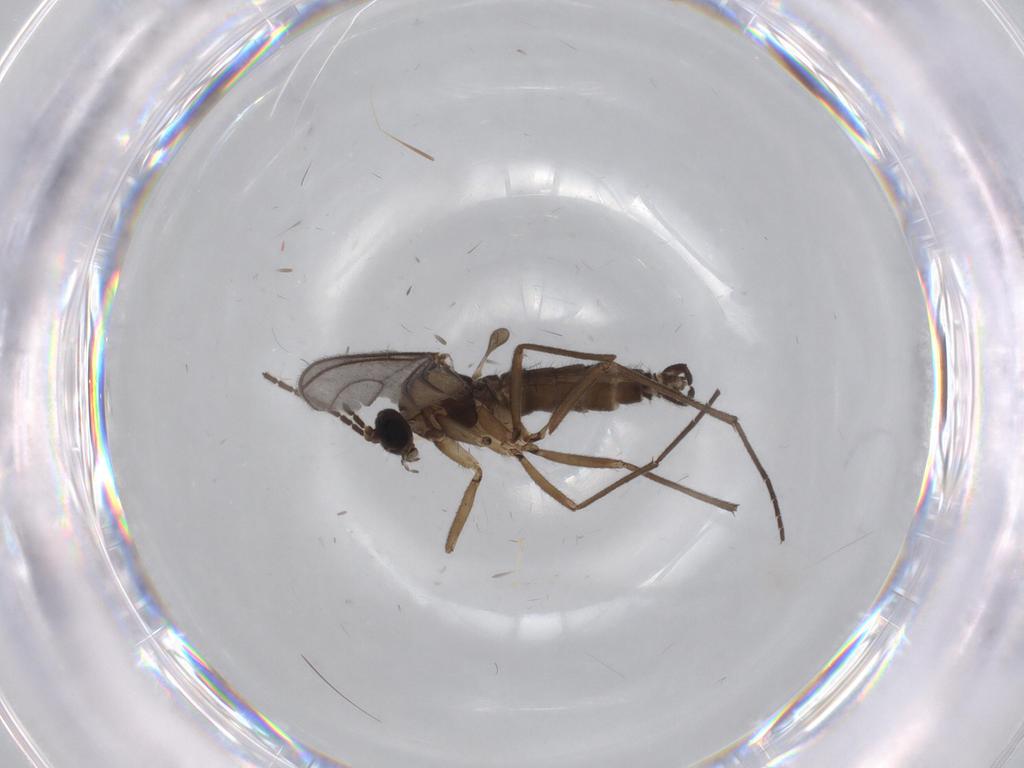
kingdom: Animalia
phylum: Arthropoda
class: Insecta
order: Diptera
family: Sciaridae
